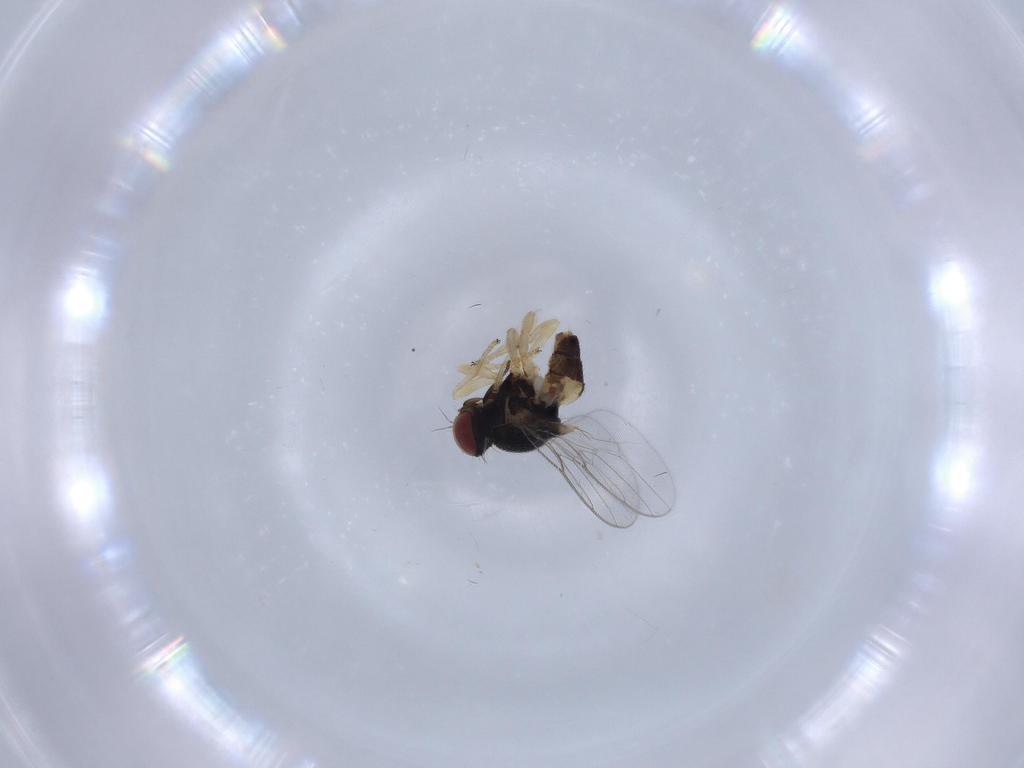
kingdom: Animalia
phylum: Arthropoda
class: Insecta
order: Diptera
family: Chloropidae
